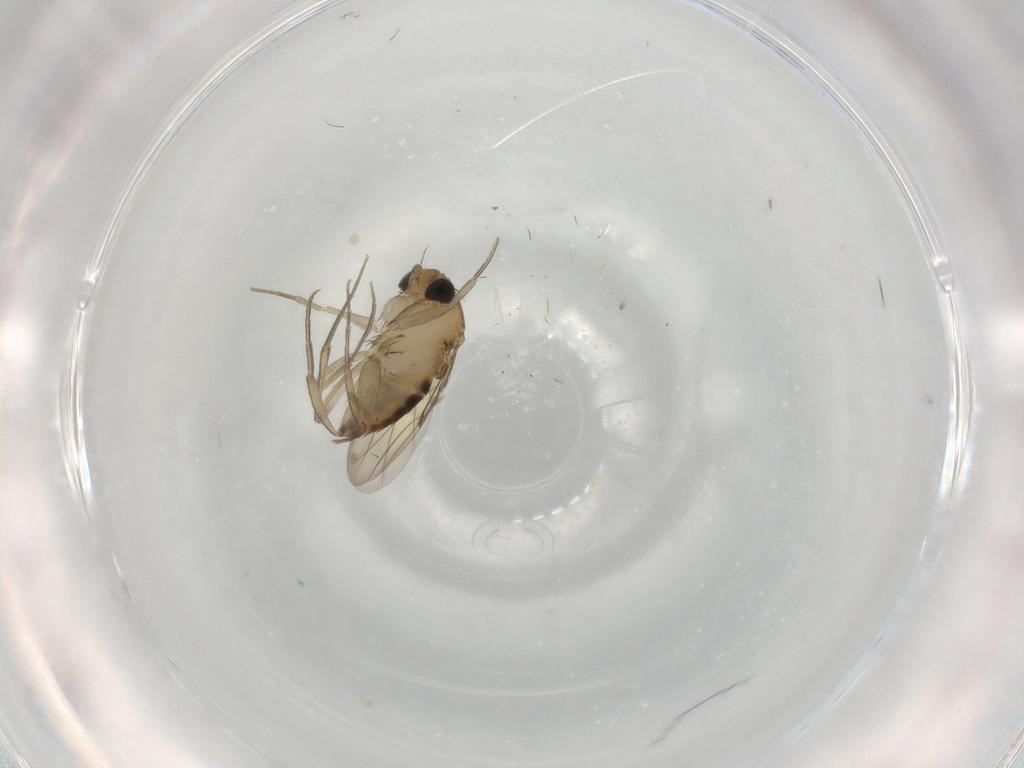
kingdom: Animalia
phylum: Arthropoda
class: Insecta
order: Diptera
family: Phoridae
